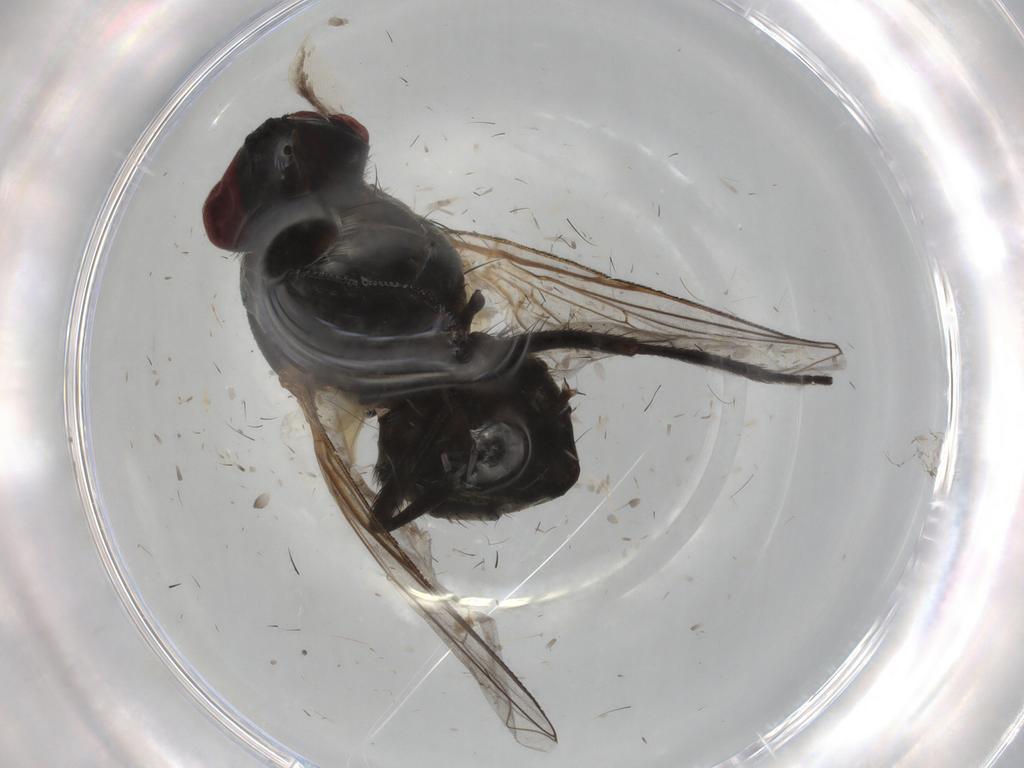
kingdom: Animalia
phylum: Arthropoda
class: Insecta
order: Diptera
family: Muscidae
